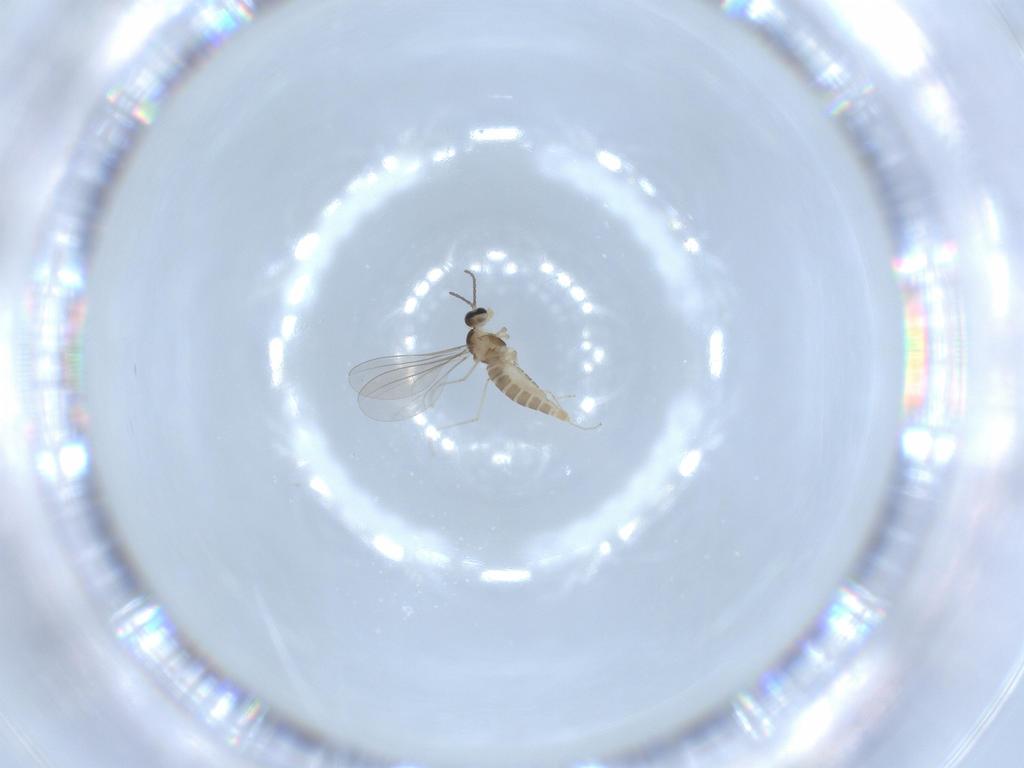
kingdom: Animalia
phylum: Arthropoda
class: Insecta
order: Diptera
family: Cecidomyiidae
